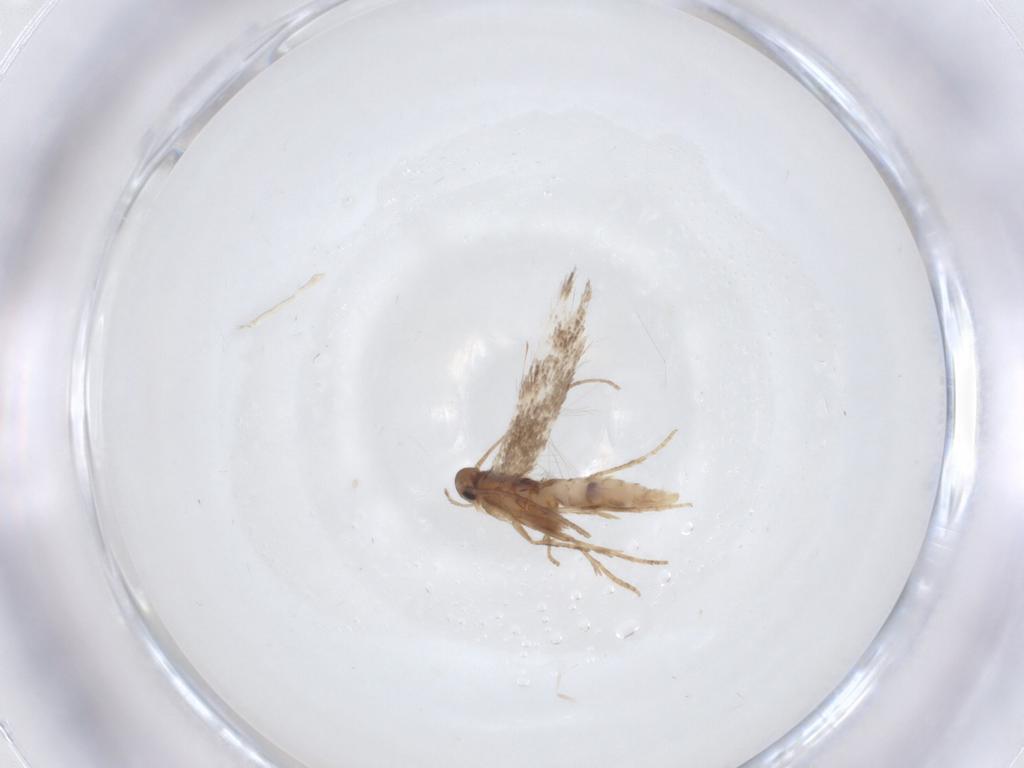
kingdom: Animalia
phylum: Arthropoda
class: Insecta
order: Lepidoptera
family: Gelechiidae
